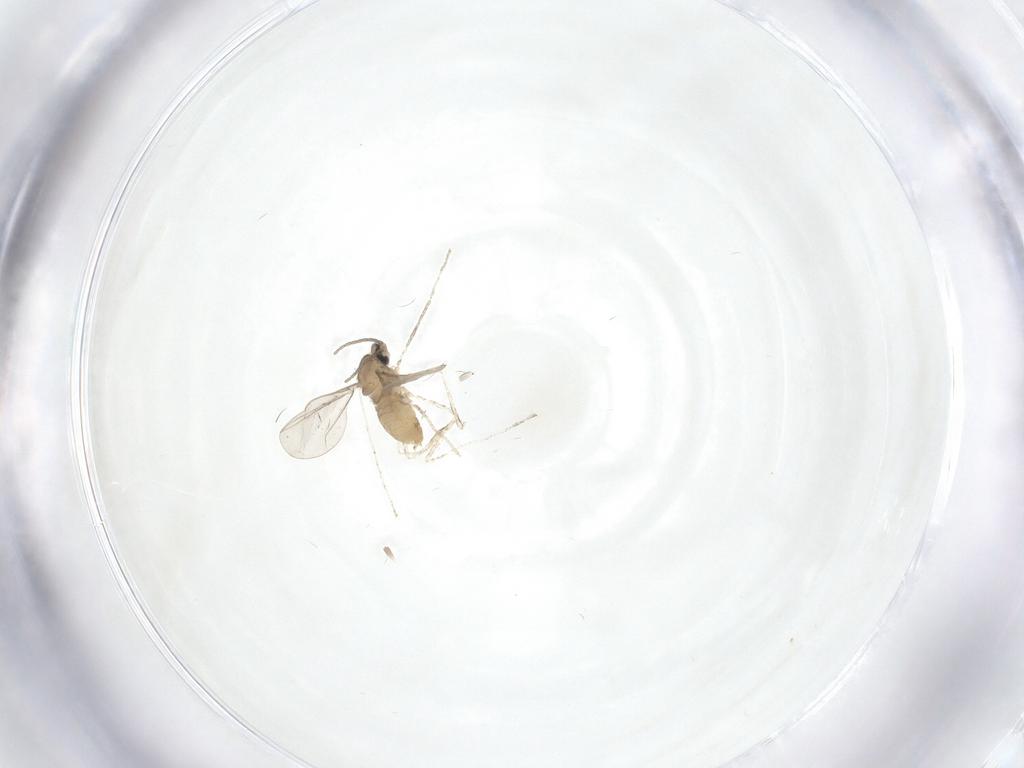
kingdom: Animalia
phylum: Arthropoda
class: Insecta
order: Diptera
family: Cecidomyiidae
